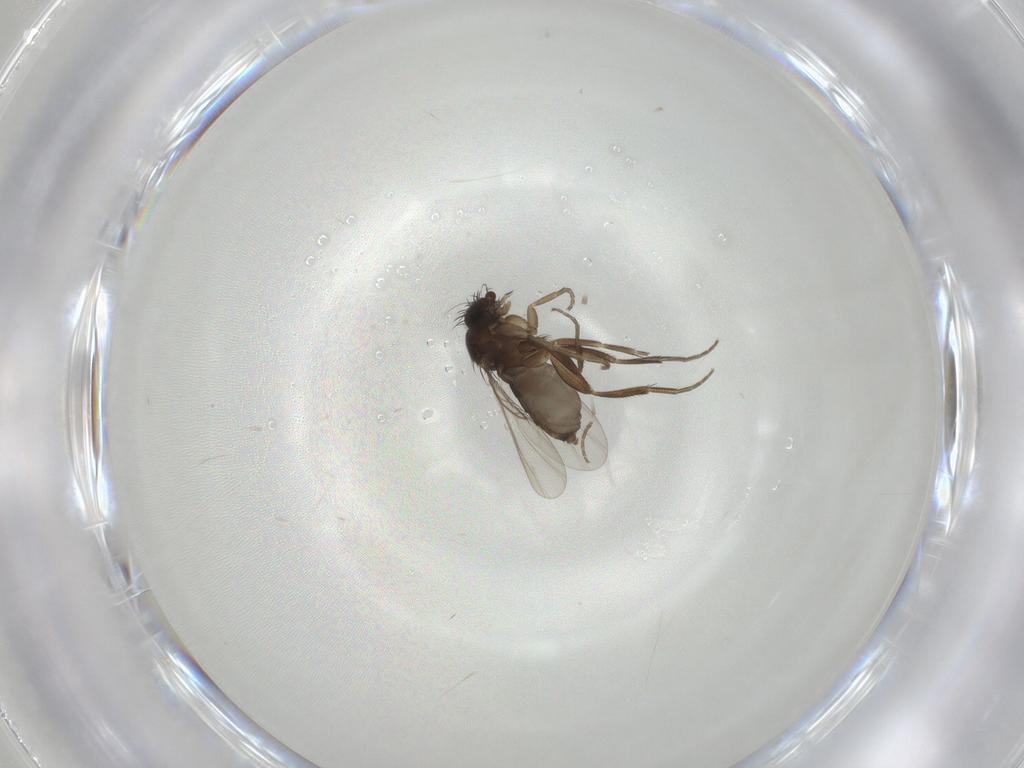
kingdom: Animalia
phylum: Arthropoda
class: Insecta
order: Diptera
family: Phoridae
